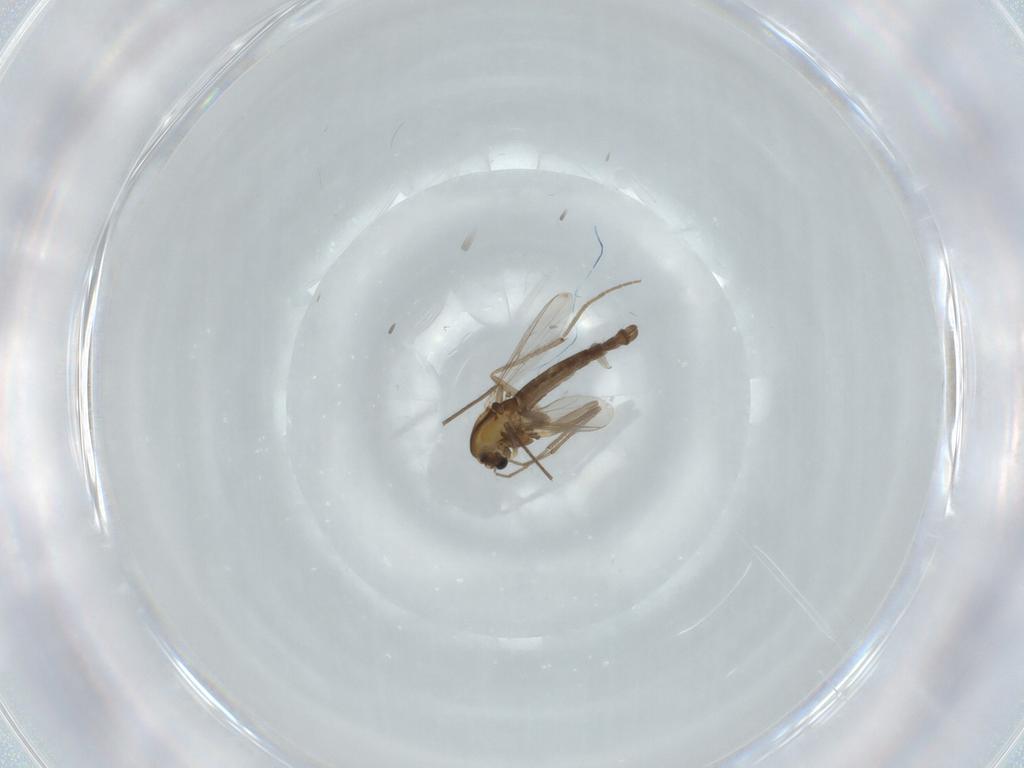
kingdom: Animalia
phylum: Arthropoda
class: Insecta
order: Diptera
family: Chironomidae
